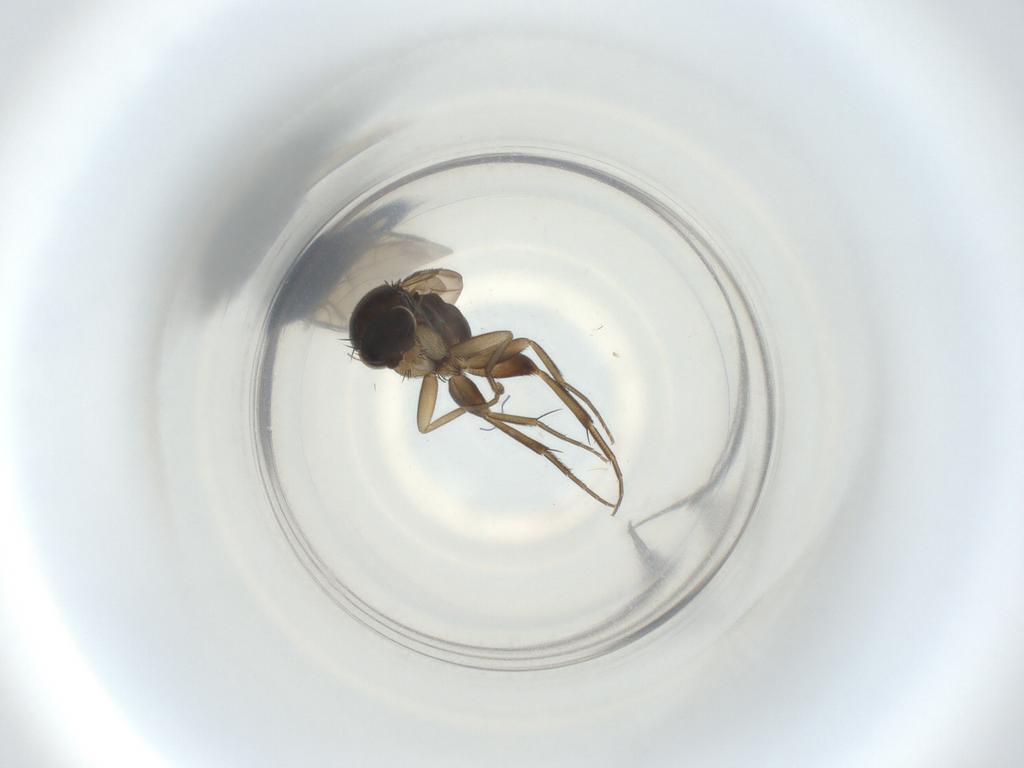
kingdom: Animalia
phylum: Arthropoda
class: Insecta
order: Diptera
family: Phoridae
